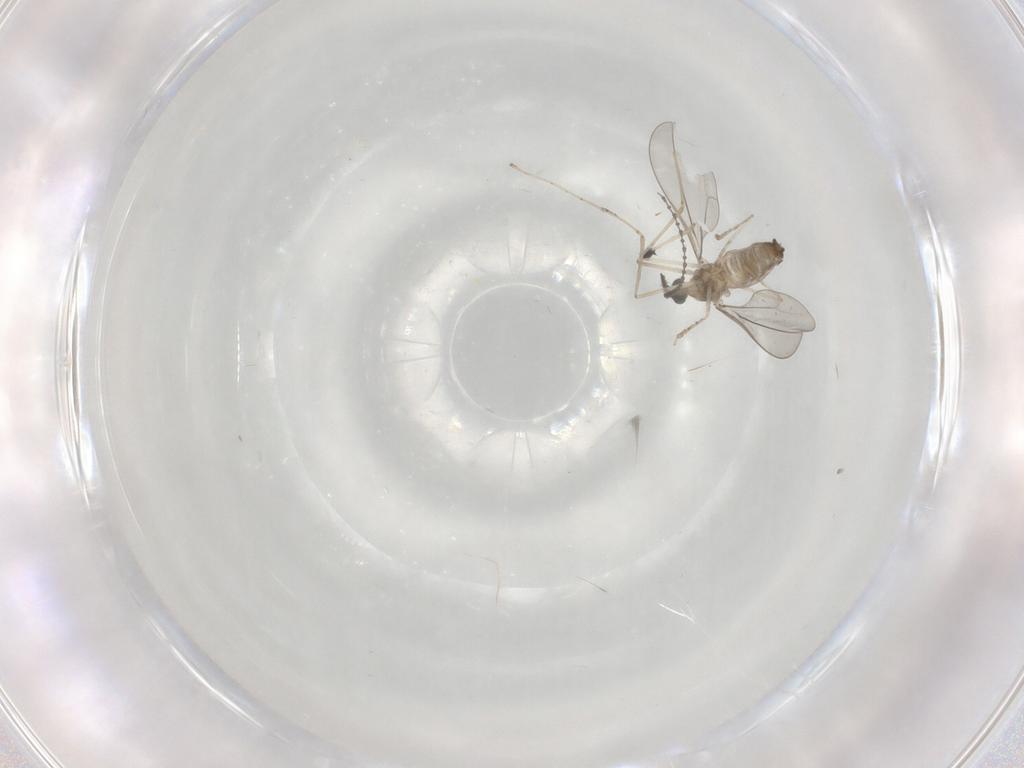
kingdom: Animalia
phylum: Arthropoda
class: Insecta
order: Diptera
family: Cecidomyiidae
